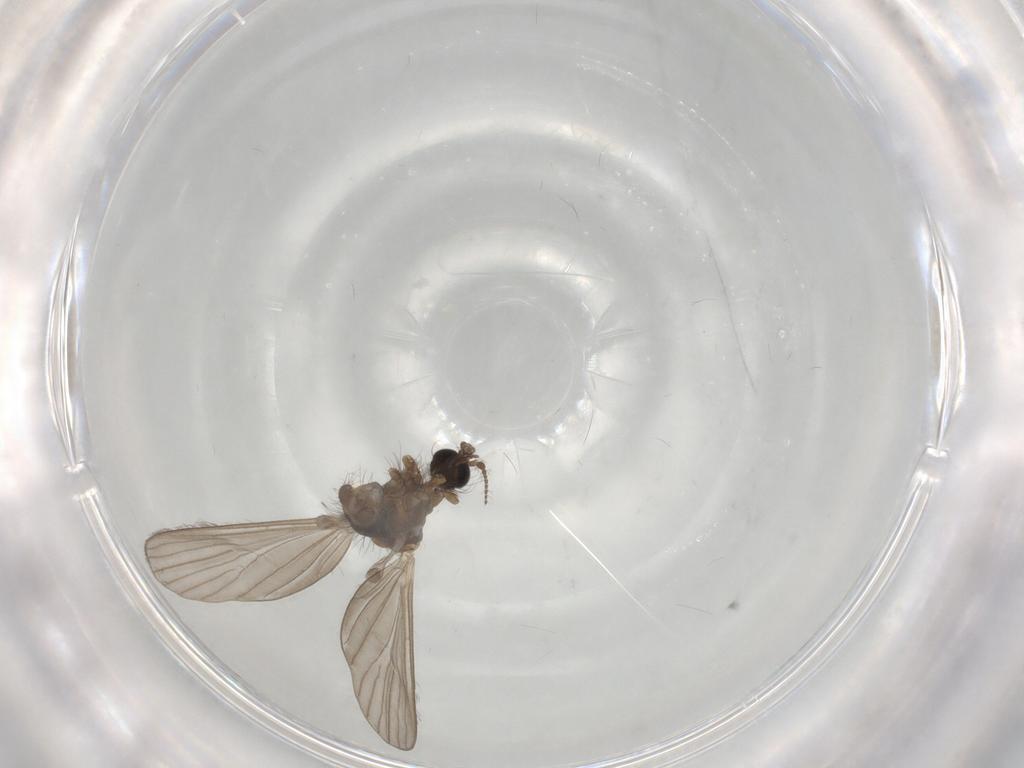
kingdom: Animalia
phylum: Arthropoda
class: Insecta
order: Diptera
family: Limoniidae
